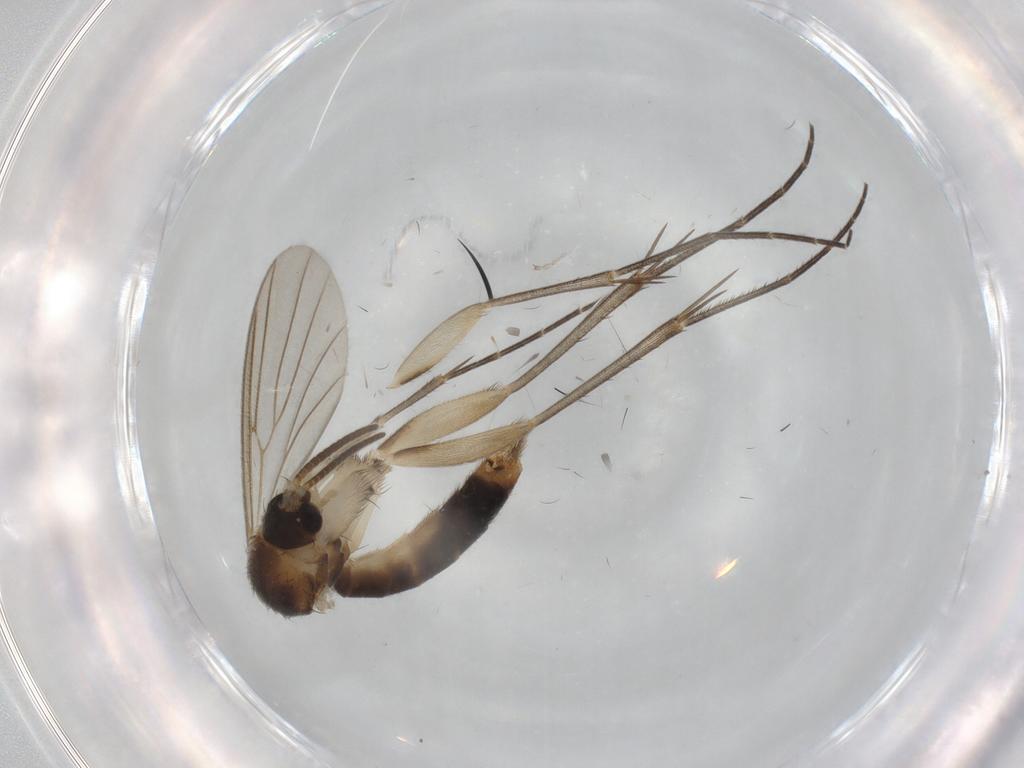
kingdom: Animalia
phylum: Arthropoda
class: Insecta
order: Diptera
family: Mycetophilidae
